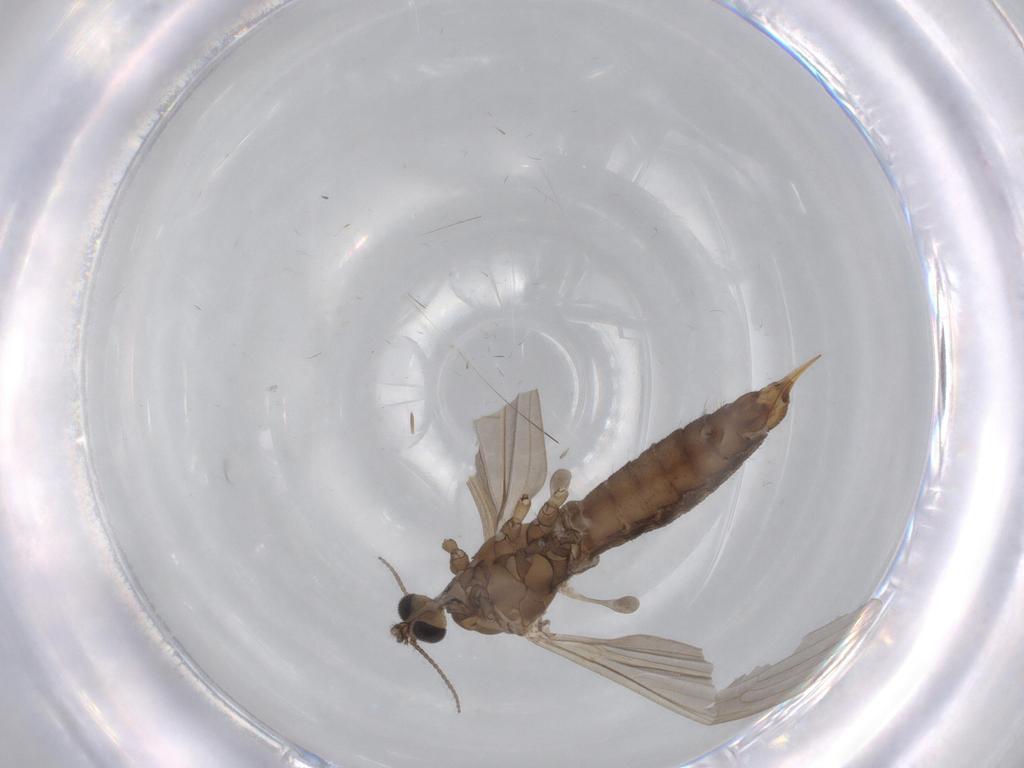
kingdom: Animalia
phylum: Arthropoda
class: Insecta
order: Diptera
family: Limoniidae
